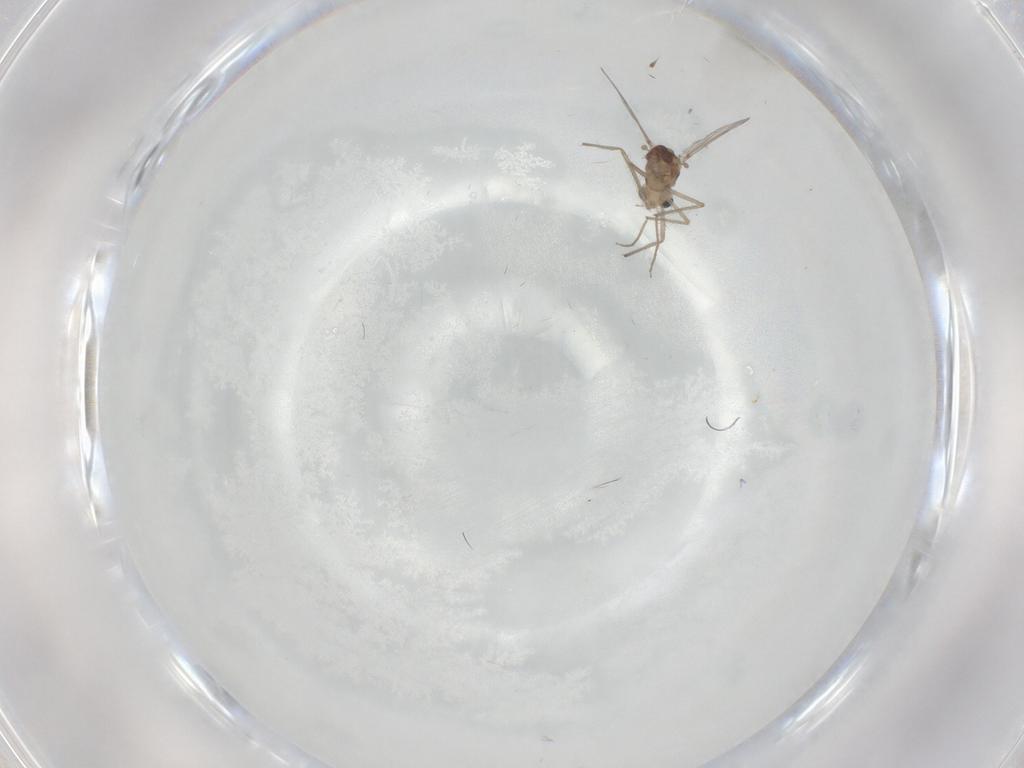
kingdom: Animalia
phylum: Arthropoda
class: Insecta
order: Diptera
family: Chironomidae
